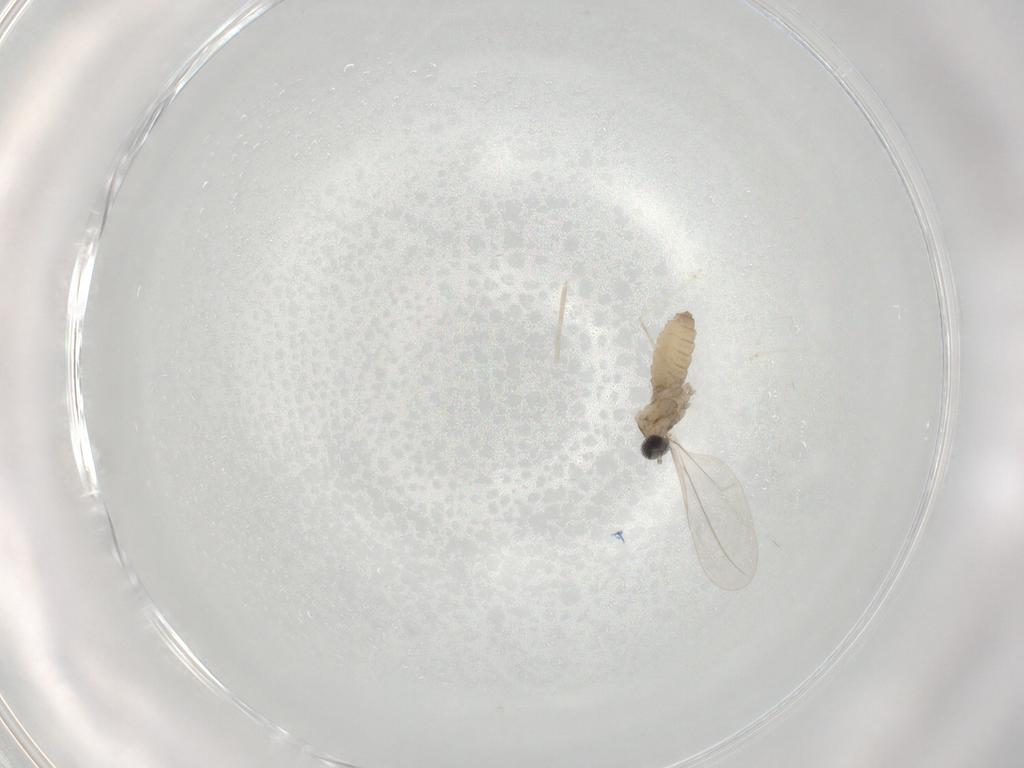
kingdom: Animalia
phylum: Arthropoda
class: Insecta
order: Diptera
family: Cecidomyiidae
